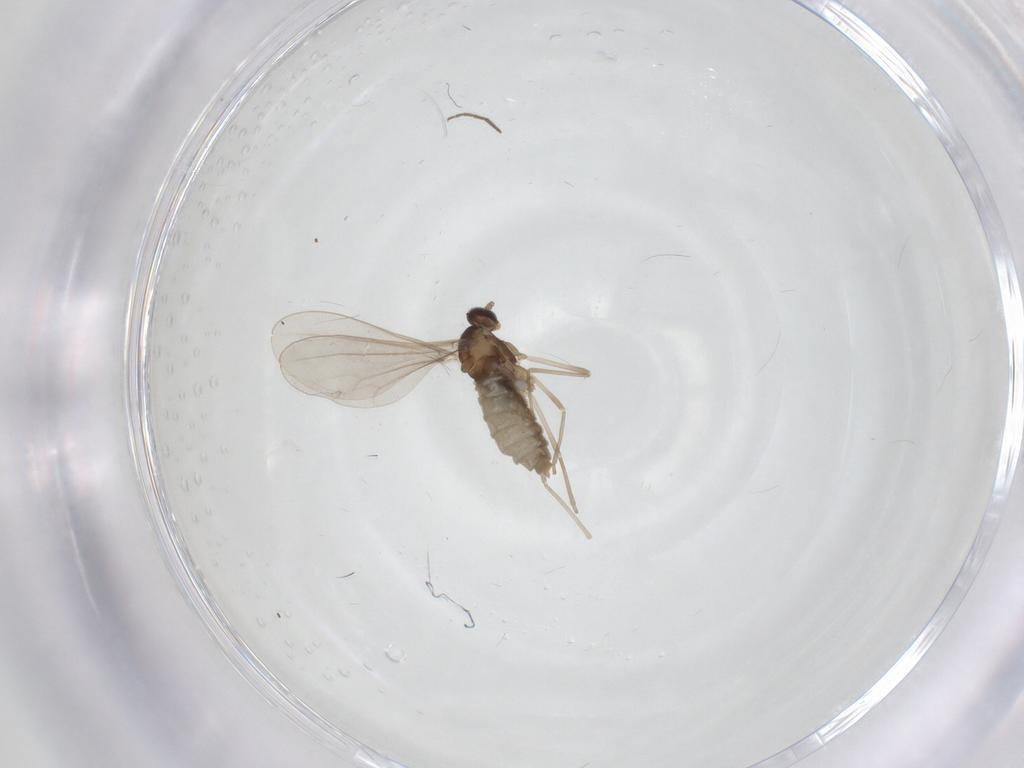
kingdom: Animalia
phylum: Arthropoda
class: Insecta
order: Diptera
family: Cecidomyiidae
